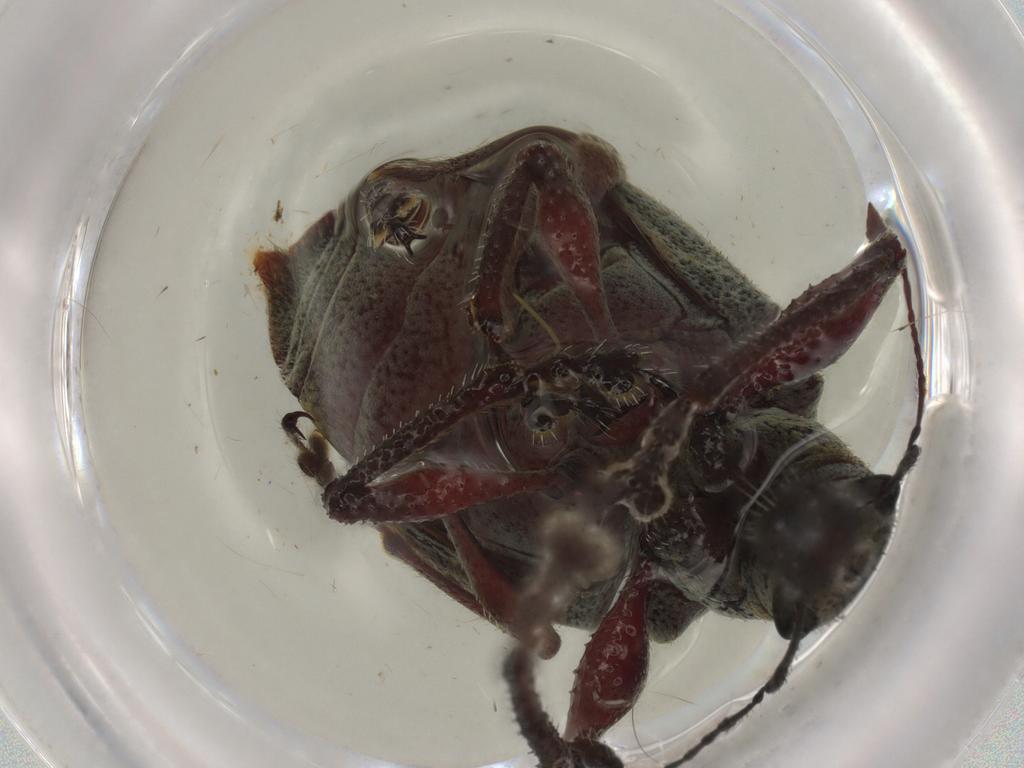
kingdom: Animalia
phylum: Arthropoda
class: Insecta
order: Coleoptera
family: Curculionidae
